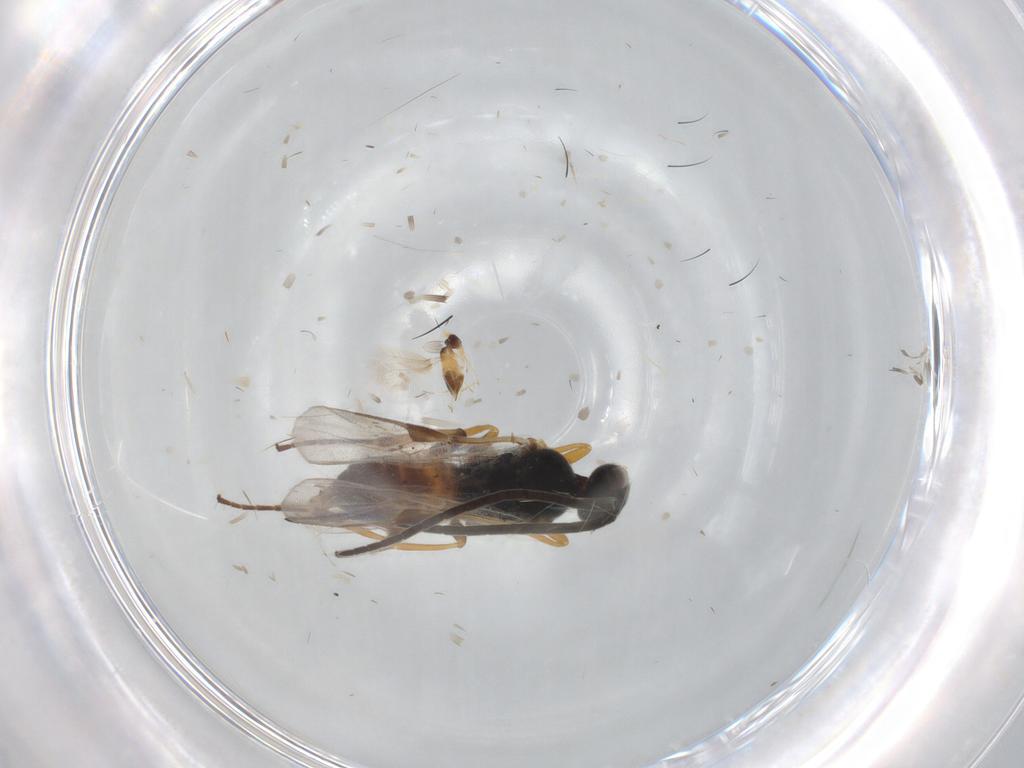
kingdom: Animalia
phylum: Arthropoda
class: Insecta
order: Hymenoptera
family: Braconidae
